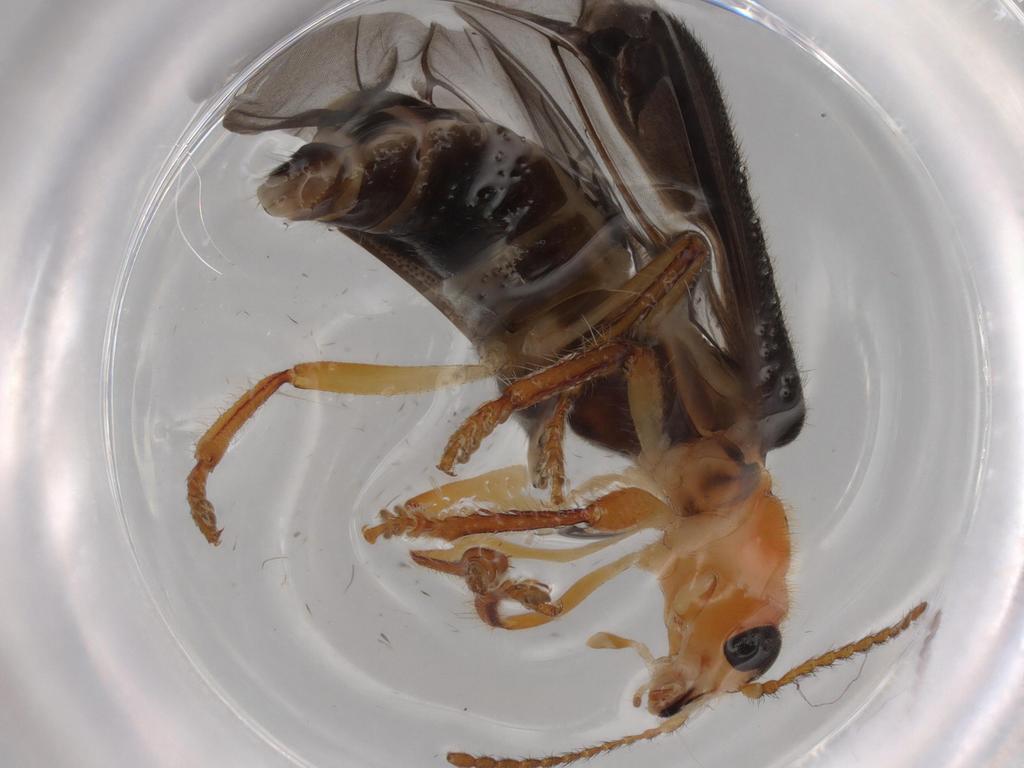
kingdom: Animalia
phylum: Arthropoda
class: Insecta
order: Coleoptera
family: Chrysomelidae
